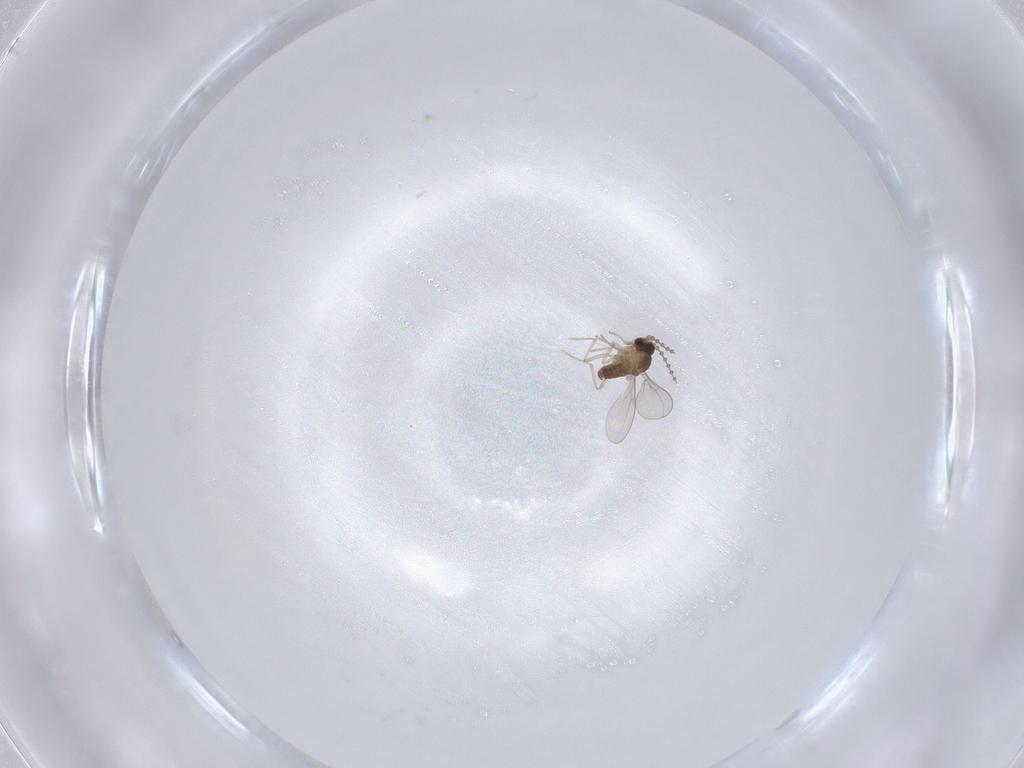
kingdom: Animalia
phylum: Arthropoda
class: Insecta
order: Diptera
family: Cecidomyiidae
